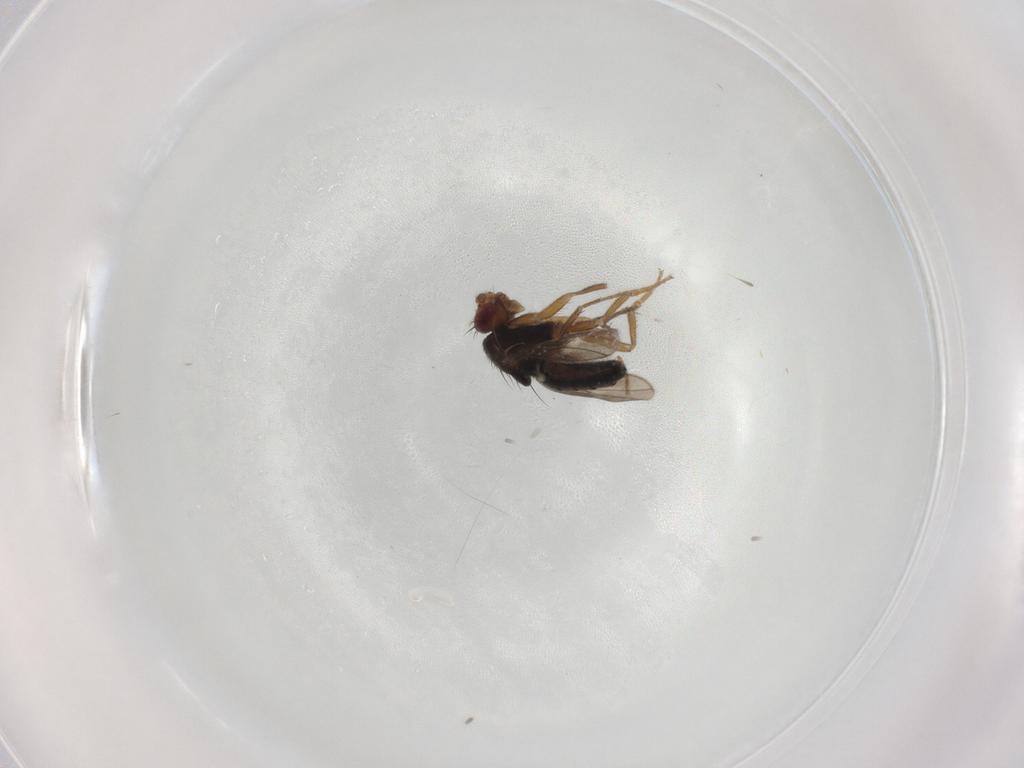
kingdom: Animalia
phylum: Arthropoda
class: Insecta
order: Diptera
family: Sphaeroceridae
